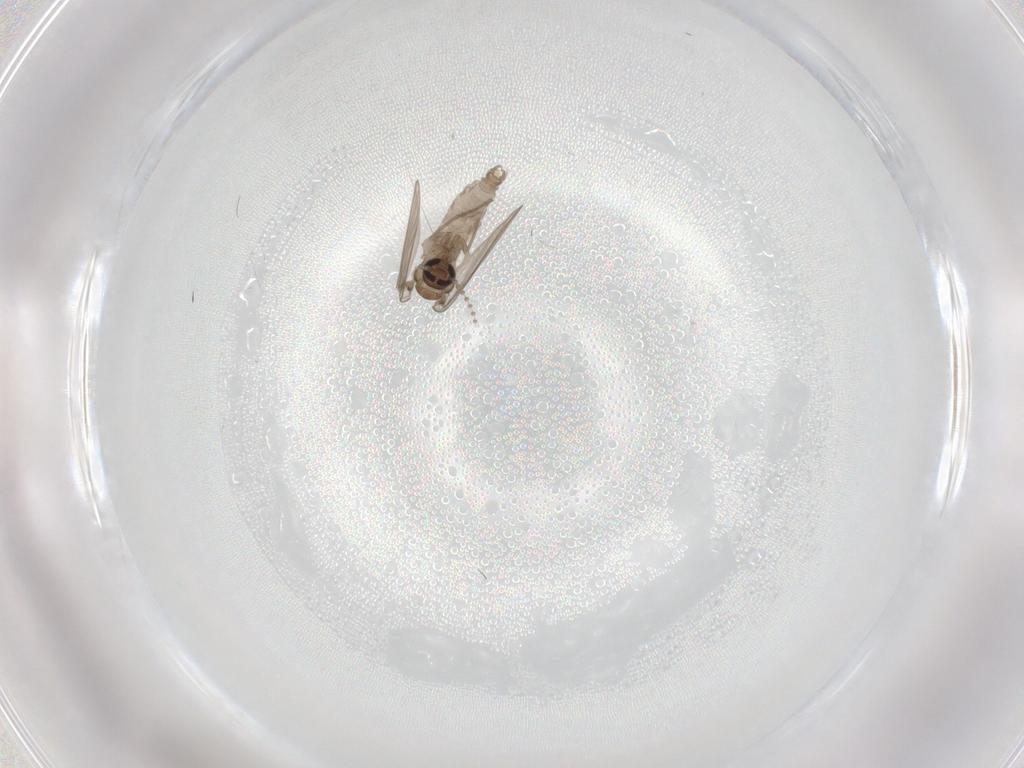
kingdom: Animalia
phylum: Arthropoda
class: Insecta
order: Diptera
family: Psychodidae
